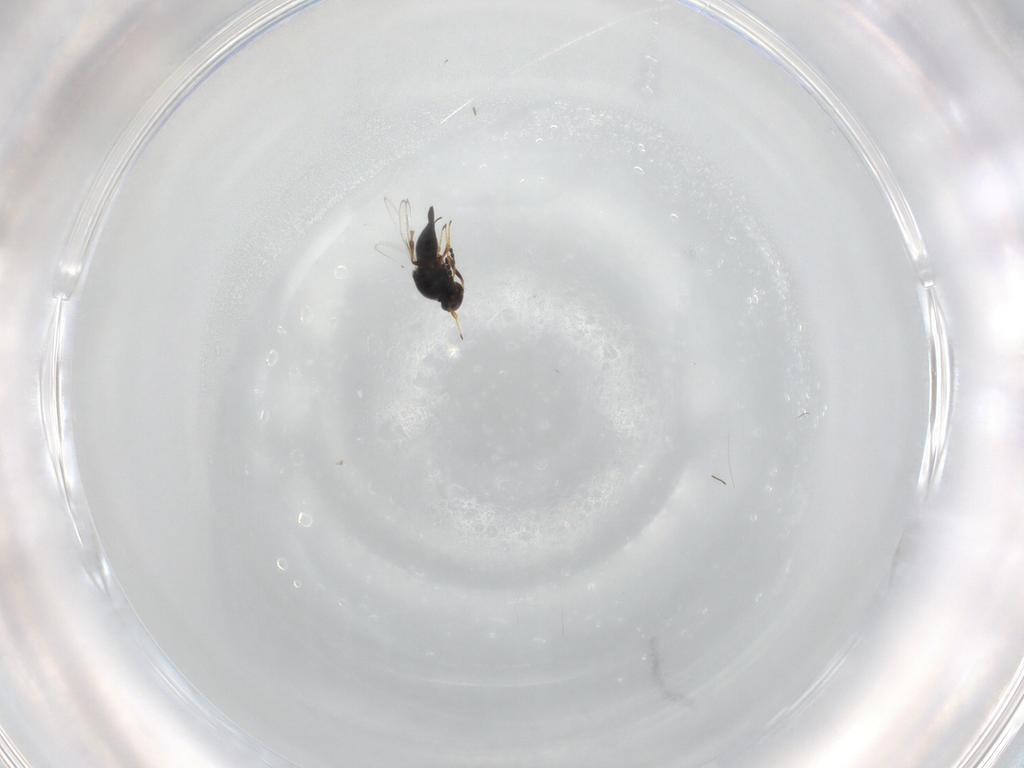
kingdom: Animalia
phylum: Arthropoda
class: Insecta
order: Hymenoptera
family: Platygastridae
